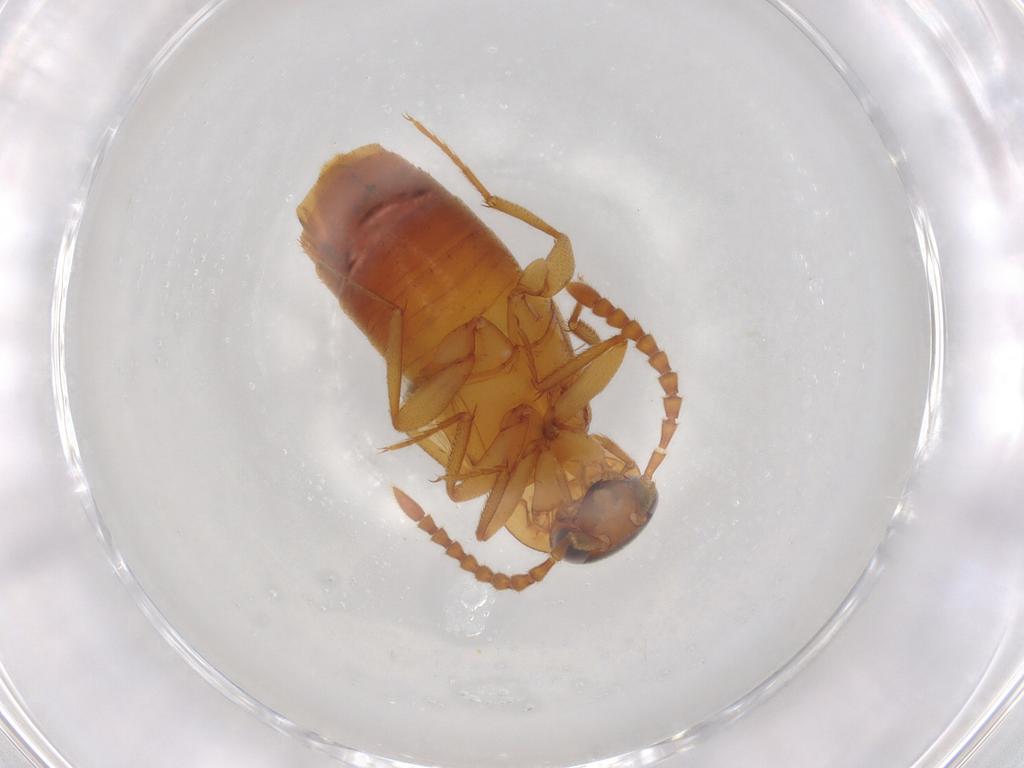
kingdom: Animalia
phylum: Arthropoda
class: Insecta
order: Coleoptera
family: Staphylinidae
